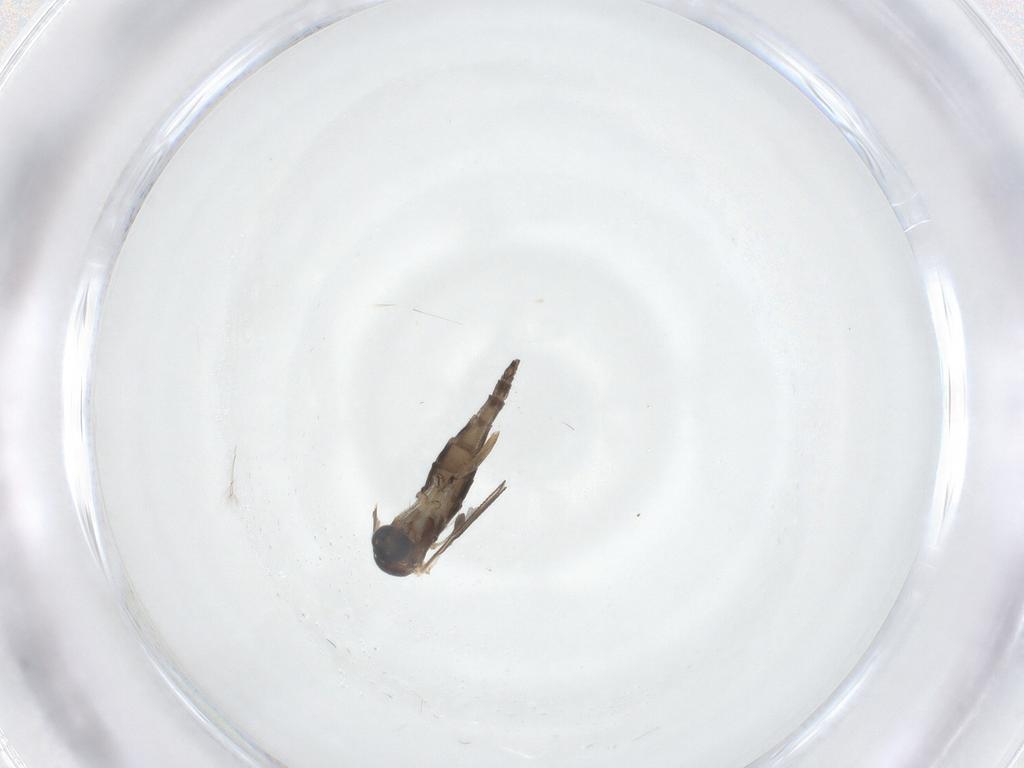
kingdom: Animalia
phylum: Arthropoda
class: Insecta
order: Diptera
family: Sciaridae
